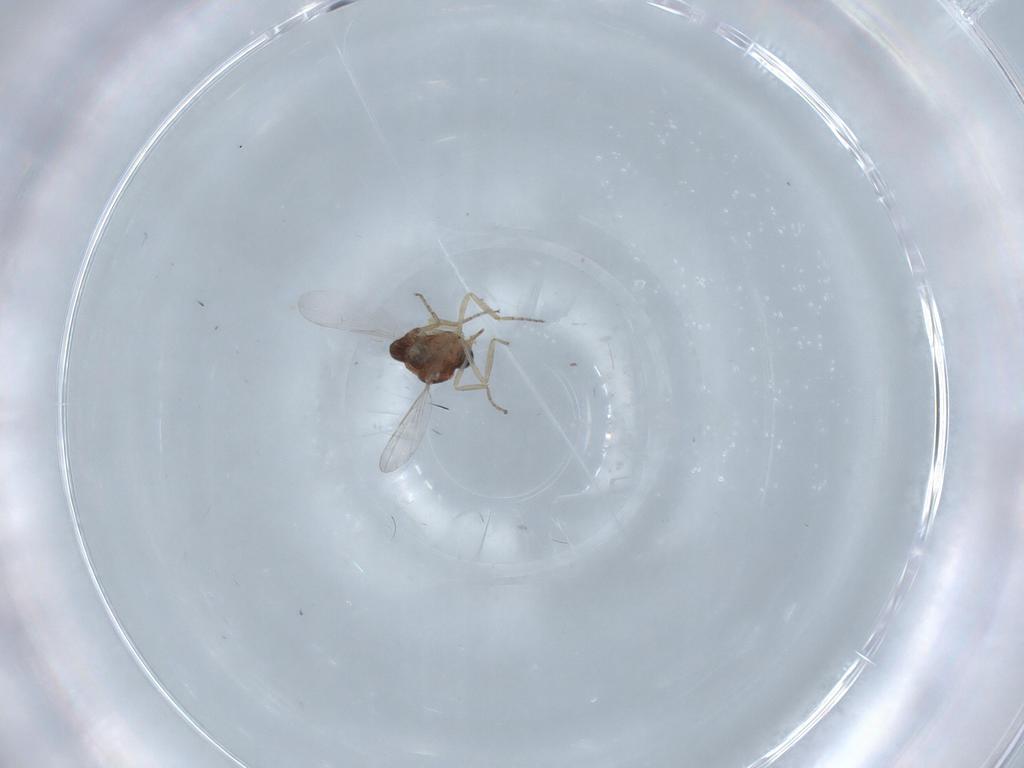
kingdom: Animalia
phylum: Arthropoda
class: Insecta
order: Diptera
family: Ceratopogonidae
